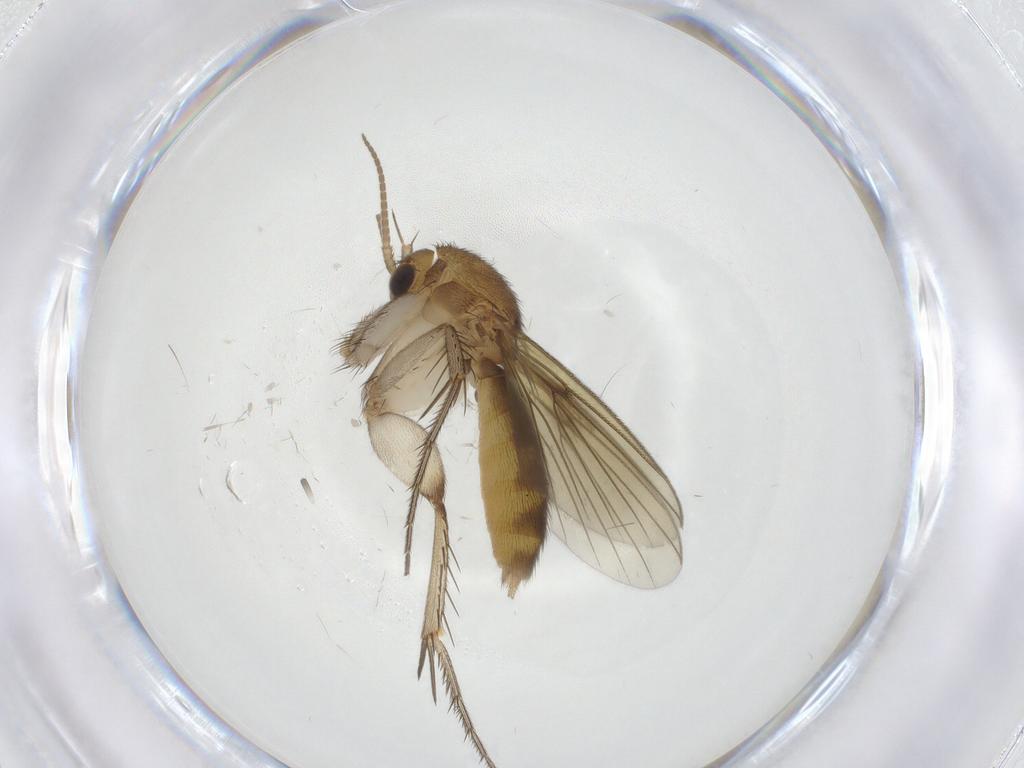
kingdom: Animalia
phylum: Arthropoda
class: Insecta
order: Diptera
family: Mycetophilidae
